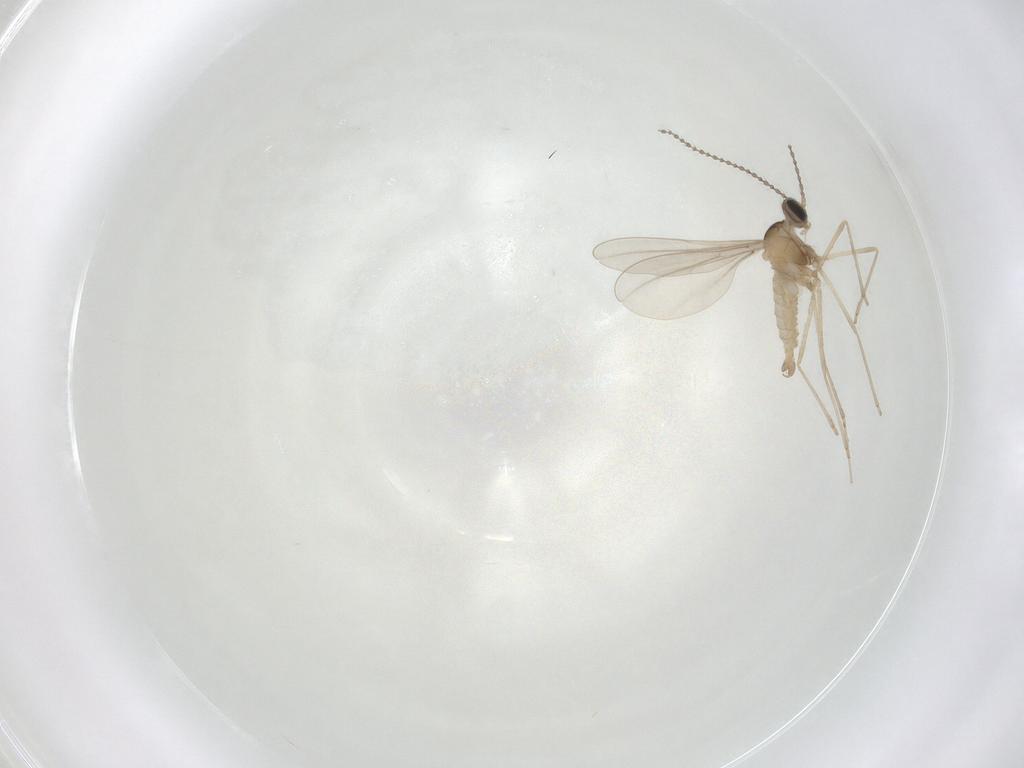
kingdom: Animalia
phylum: Arthropoda
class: Insecta
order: Diptera
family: Cecidomyiidae
